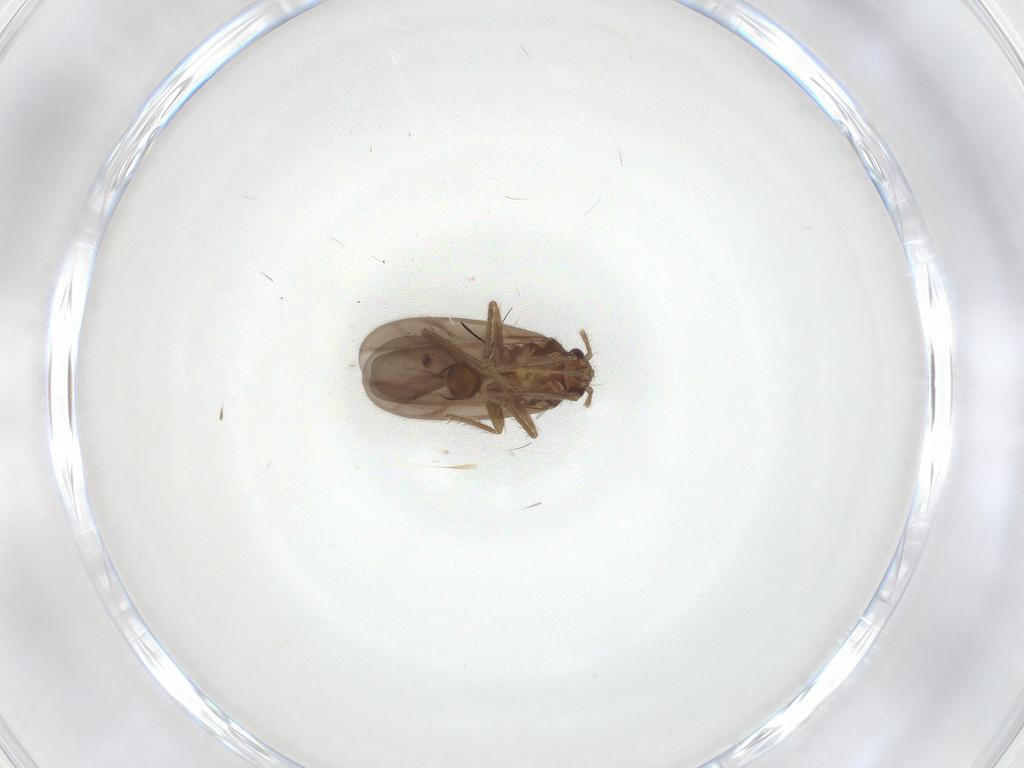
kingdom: Animalia
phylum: Arthropoda
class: Insecta
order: Hemiptera
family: Ceratocombidae
